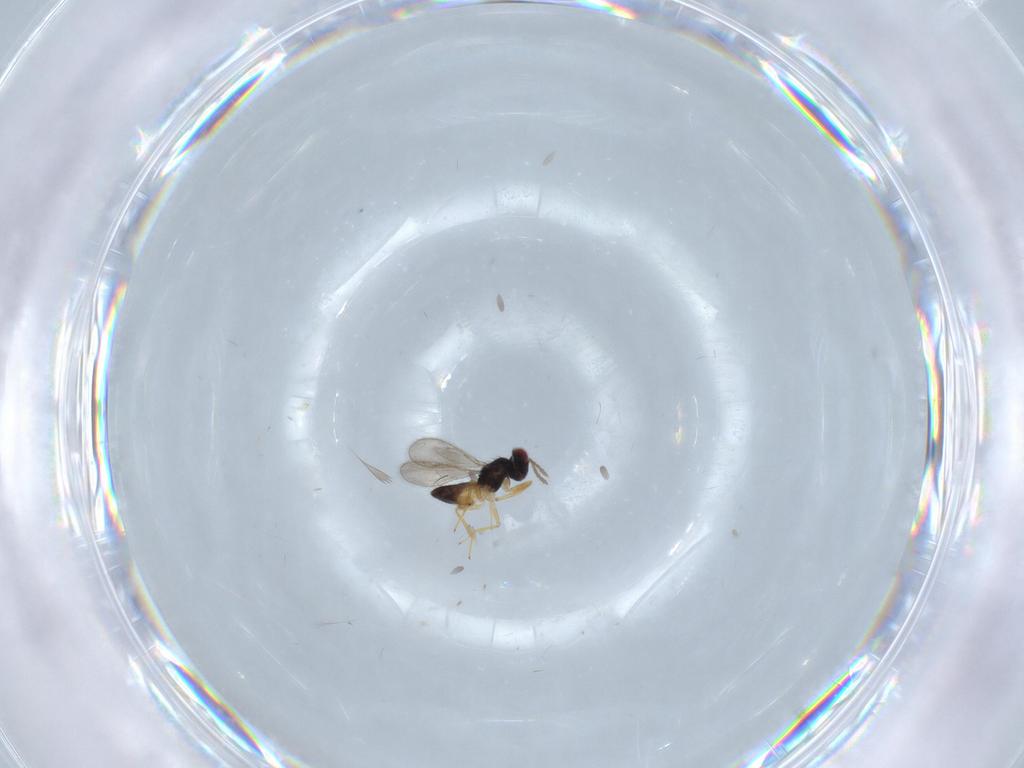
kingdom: Animalia
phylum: Arthropoda
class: Insecta
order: Hymenoptera
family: Eulophidae
